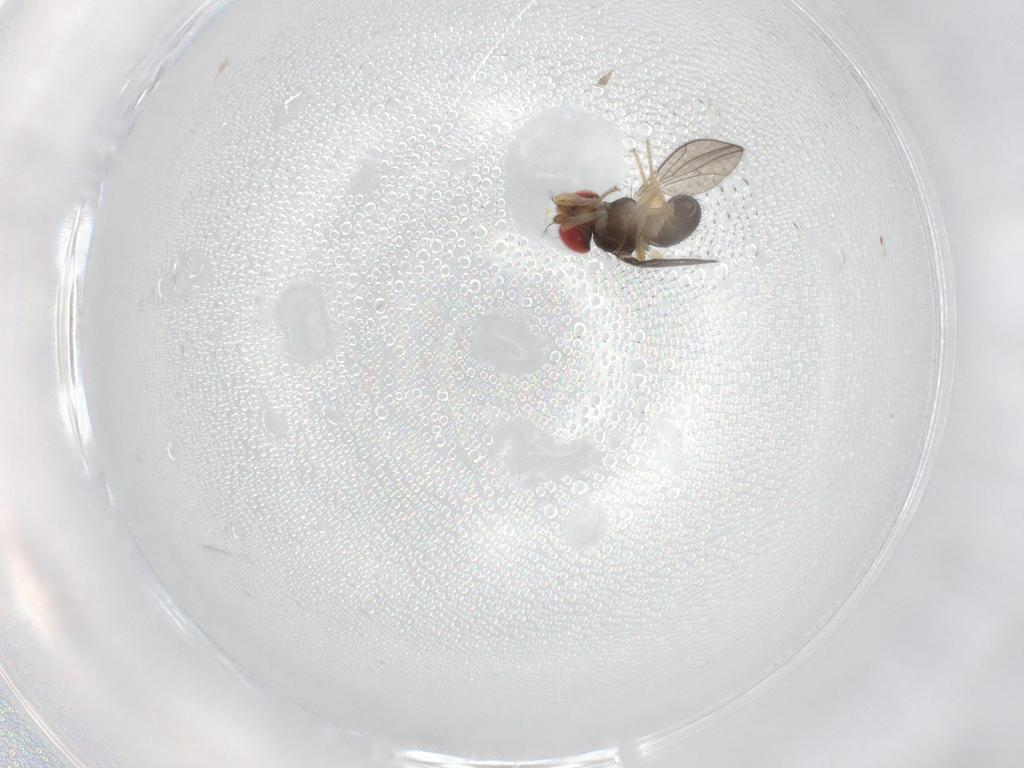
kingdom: Animalia
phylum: Arthropoda
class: Insecta
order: Diptera
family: Drosophilidae
